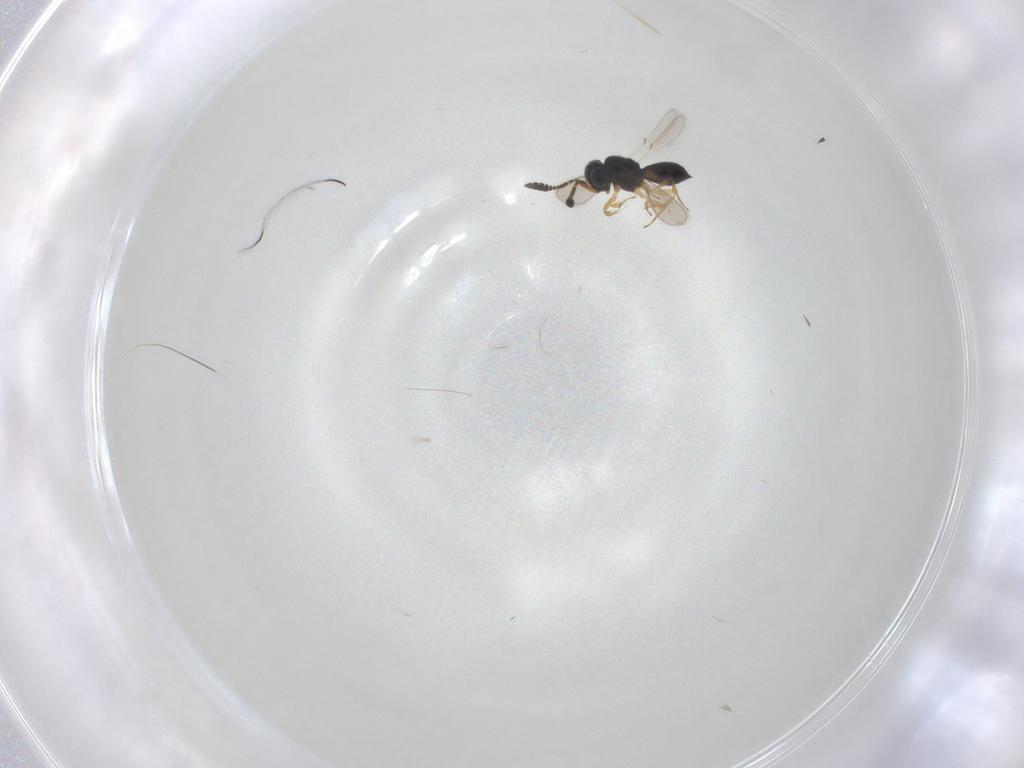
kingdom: Animalia
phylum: Arthropoda
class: Insecta
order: Hymenoptera
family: Scelionidae
